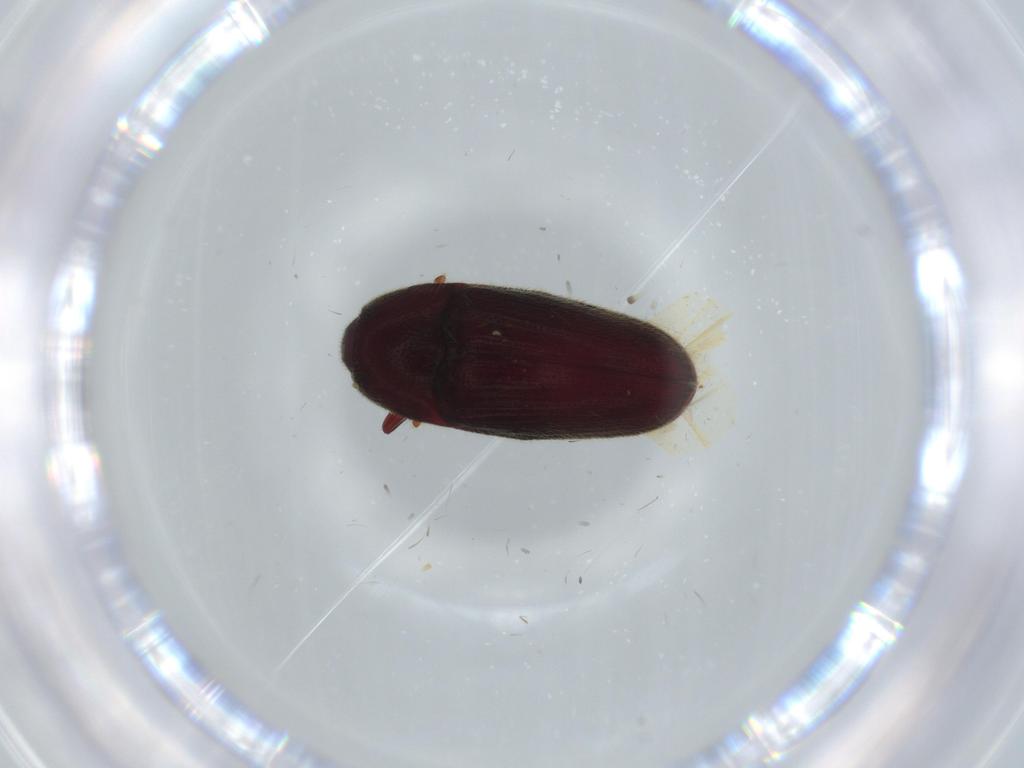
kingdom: Animalia
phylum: Arthropoda
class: Insecta
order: Coleoptera
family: Throscidae
